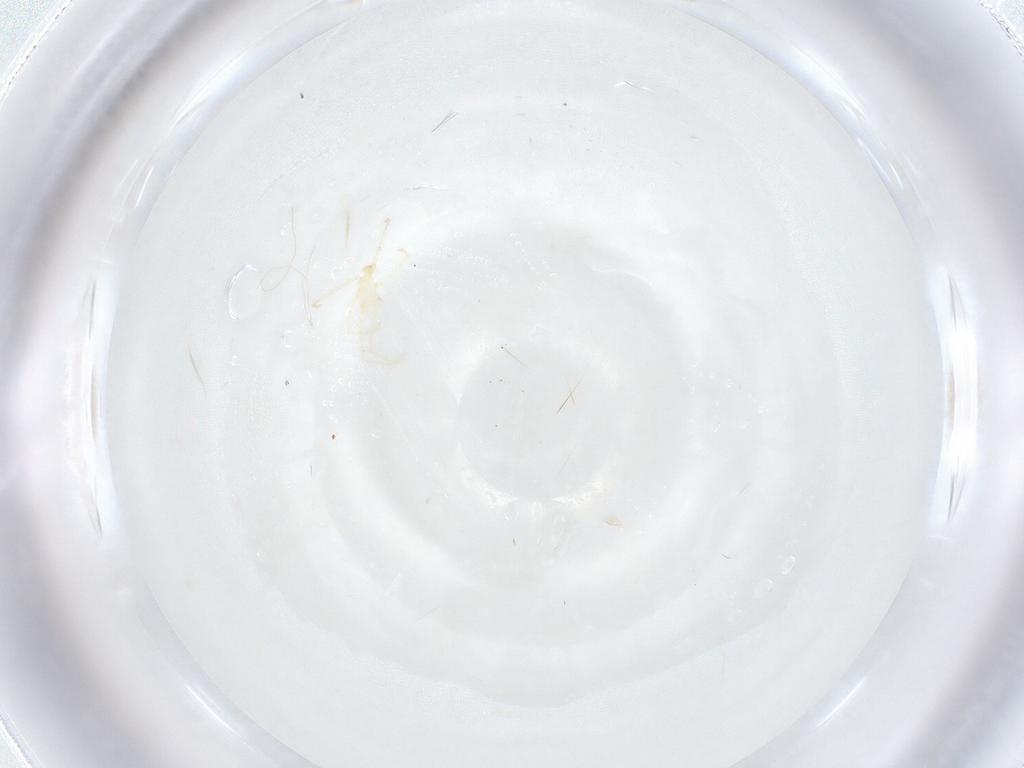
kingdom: Animalia
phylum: Arthropoda
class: Arachnida
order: Trombidiformes
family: Erythraeidae
